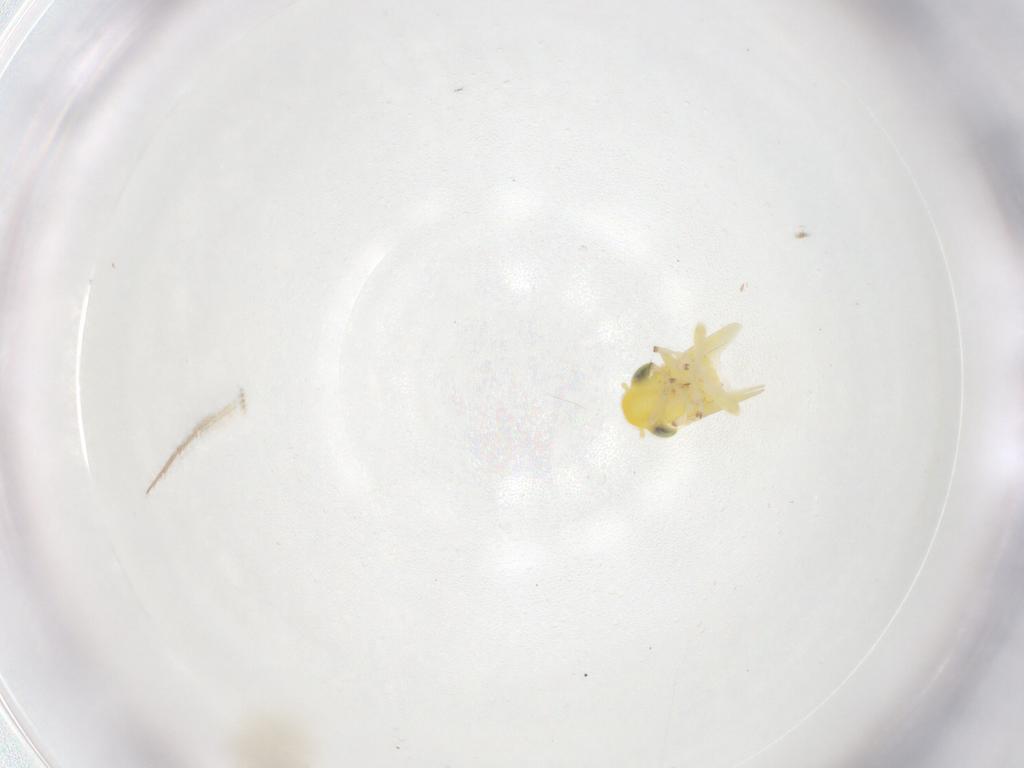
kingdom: Animalia
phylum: Arthropoda
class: Insecta
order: Hemiptera
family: Cicadellidae
